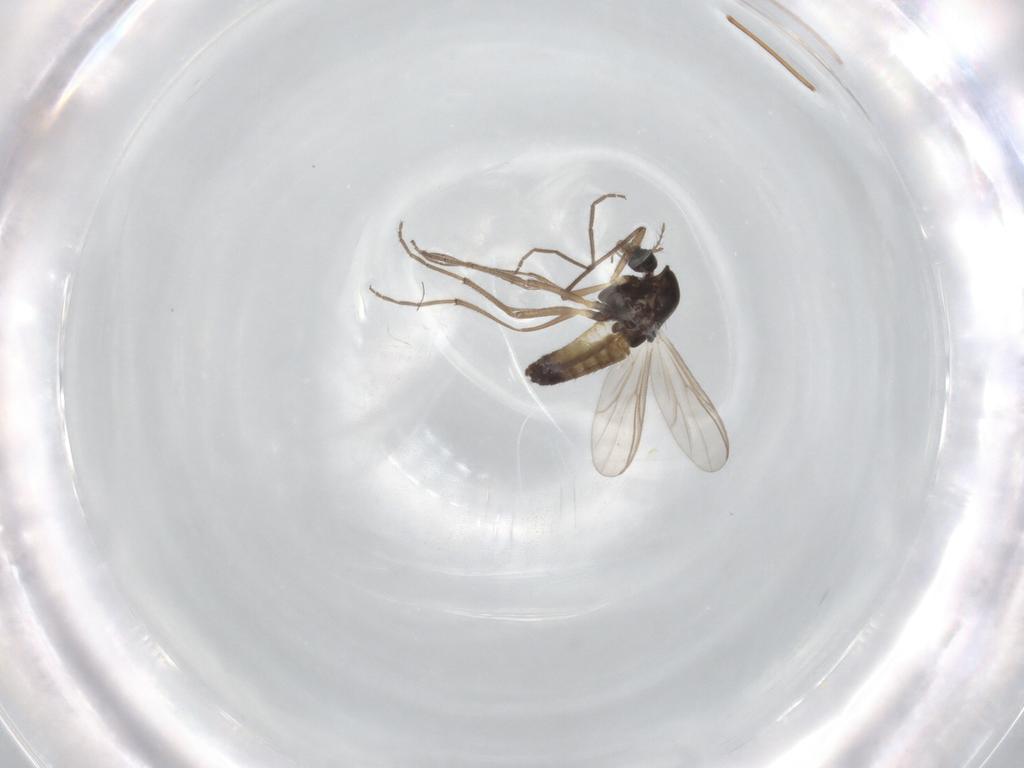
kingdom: Animalia
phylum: Arthropoda
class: Insecta
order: Diptera
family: Chironomidae
